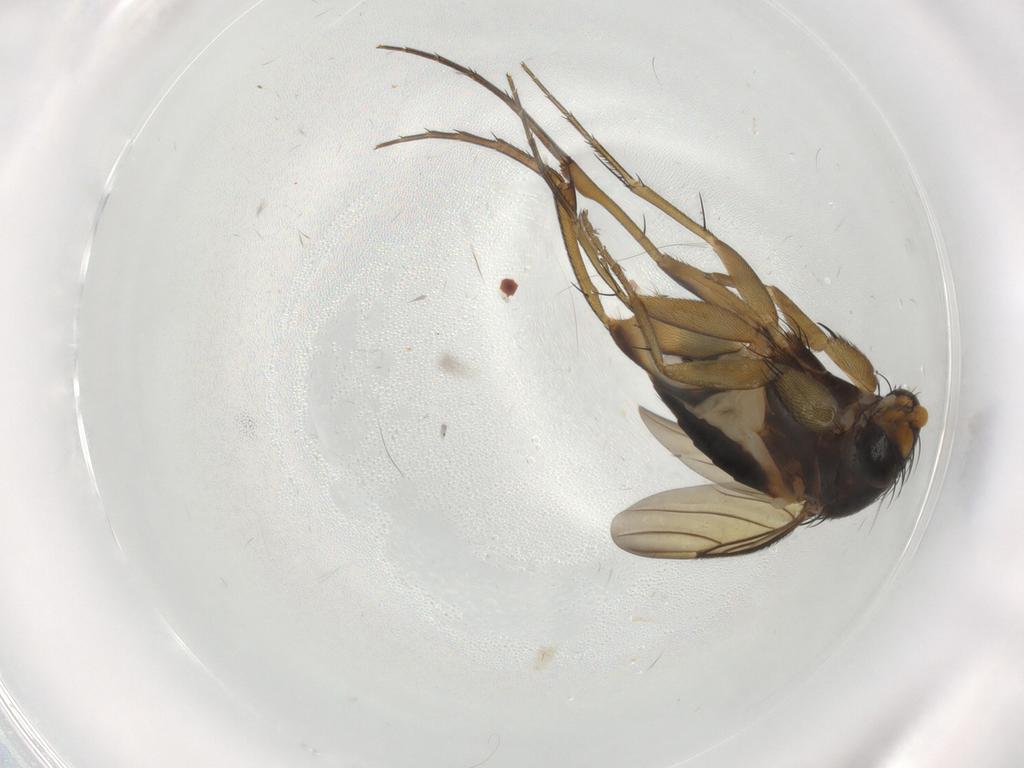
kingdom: Animalia
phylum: Arthropoda
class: Insecta
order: Diptera
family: Phoridae
